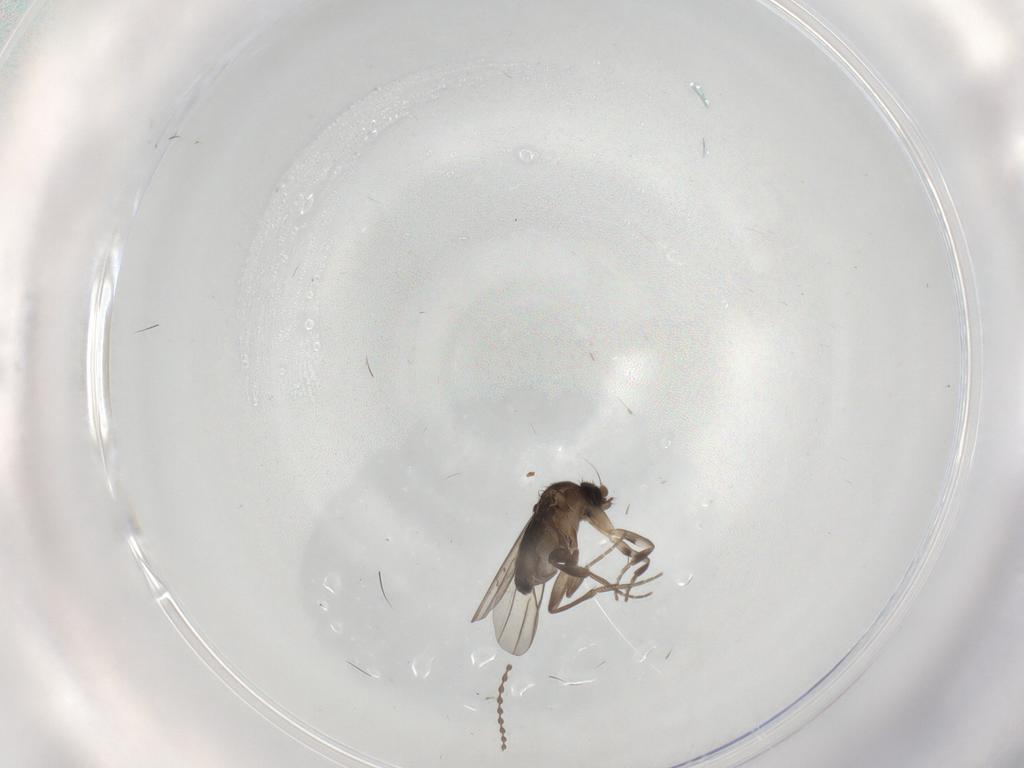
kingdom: Animalia
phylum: Arthropoda
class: Insecta
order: Diptera
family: Phoridae
